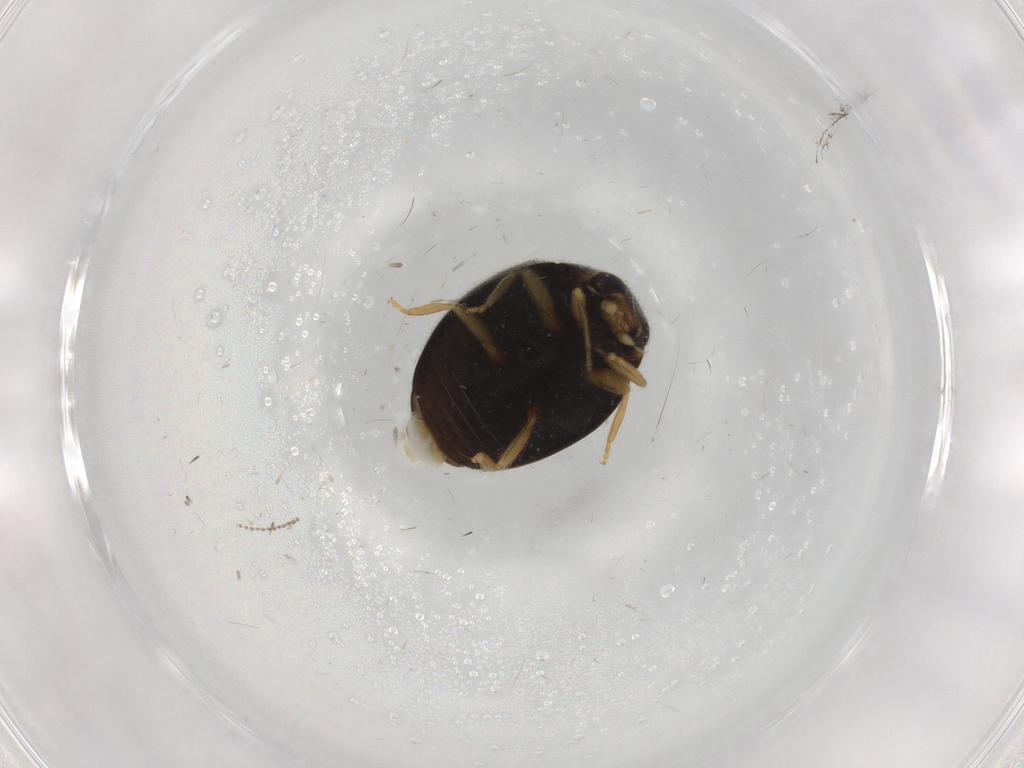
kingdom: Animalia
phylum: Arthropoda
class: Insecta
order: Coleoptera
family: Coccinellidae
